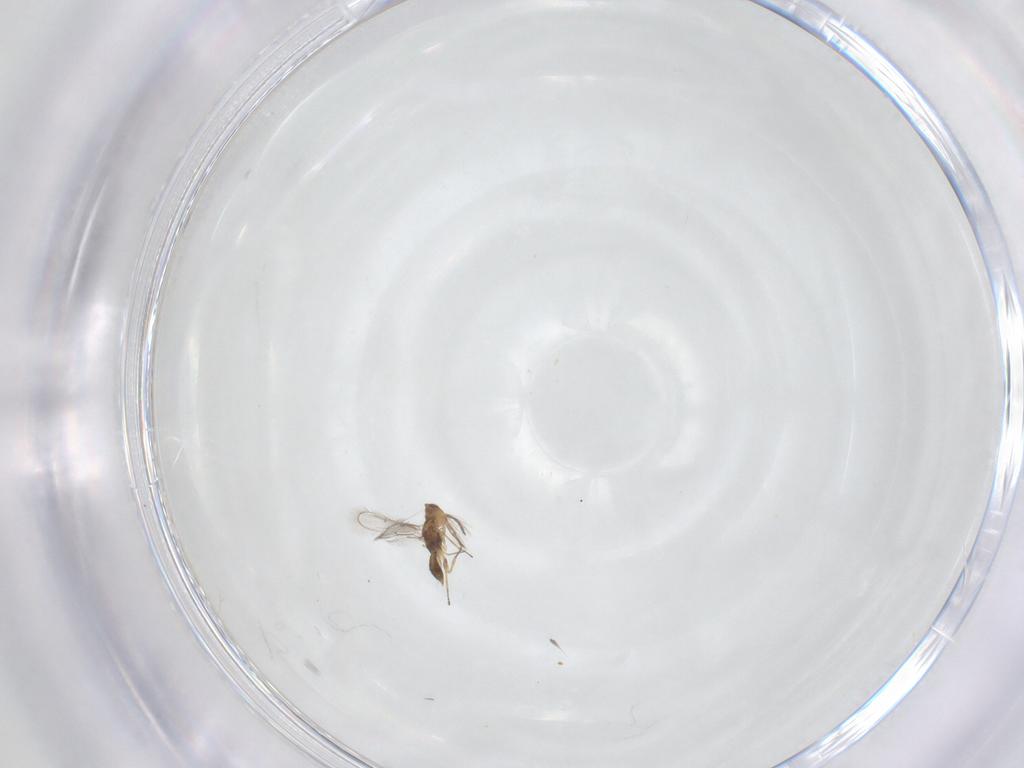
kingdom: Animalia
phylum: Arthropoda
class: Insecta
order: Hymenoptera
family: Eulophidae
